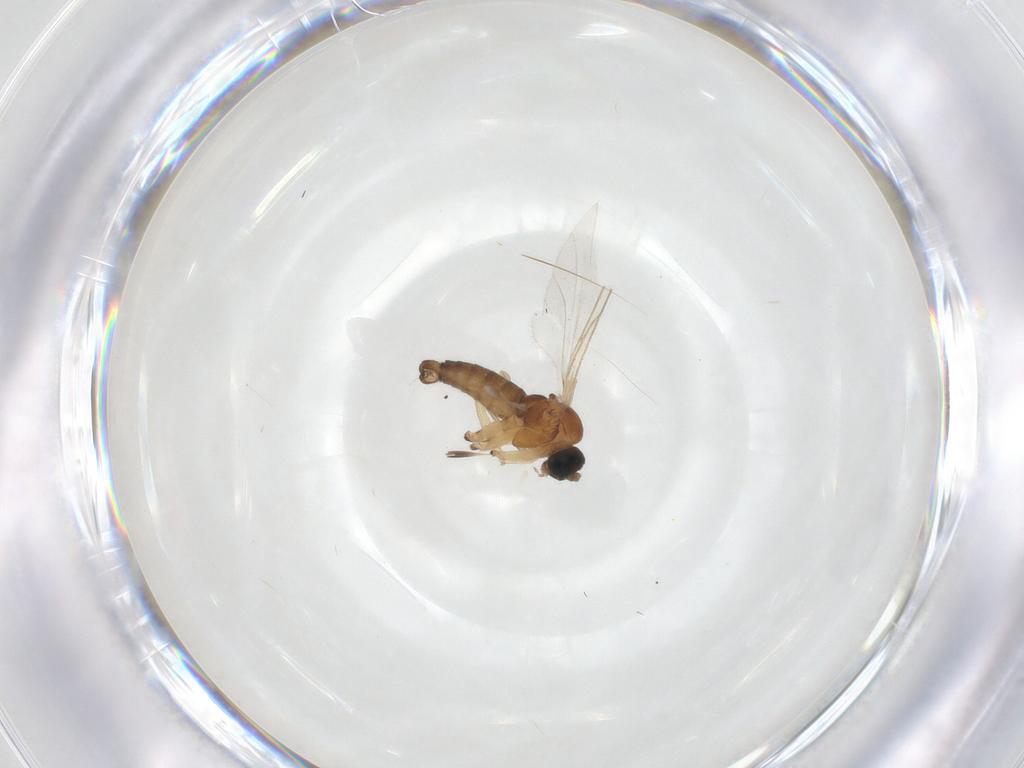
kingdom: Animalia
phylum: Arthropoda
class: Insecta
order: Diptera
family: Sciaridae
